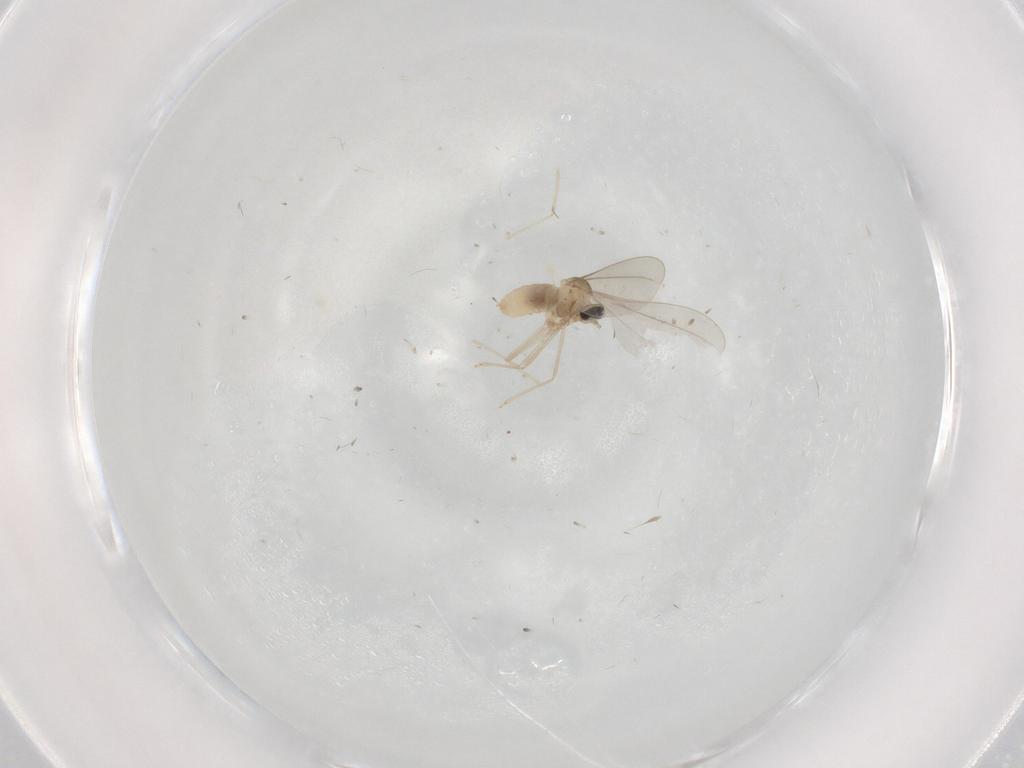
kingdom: Animalia
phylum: Arthropoda
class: Insecta
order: Diptera
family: Cecidomyiidae
